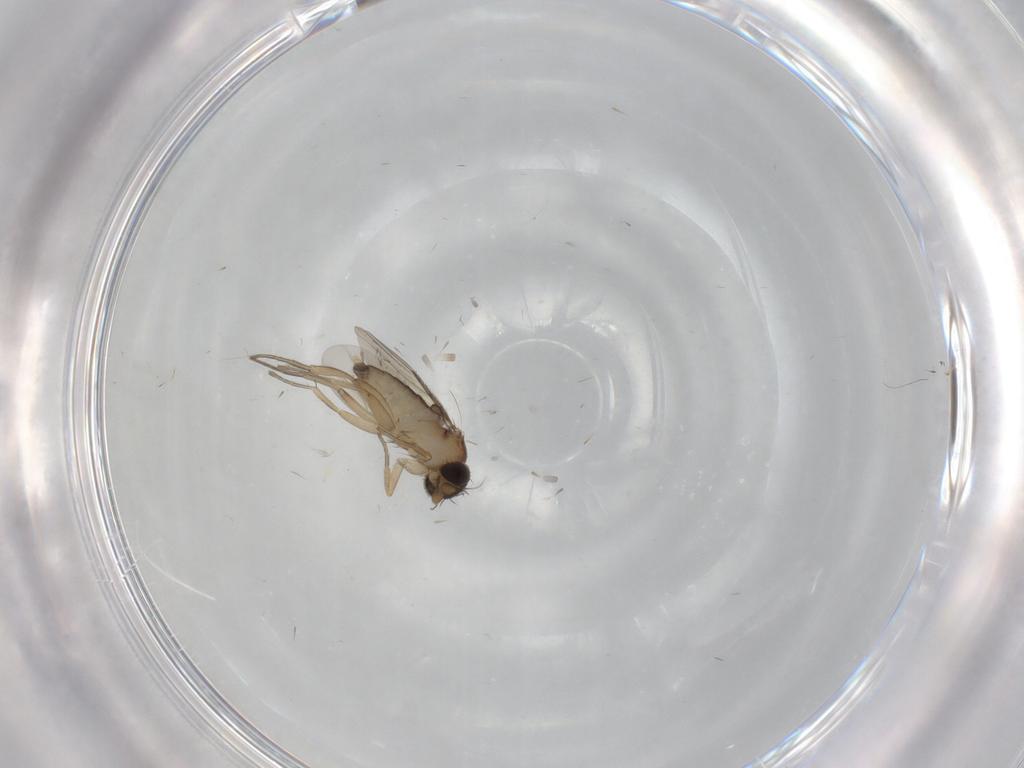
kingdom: Animalia
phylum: Arthropoda
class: Insecta
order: Diptera
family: Phoridae
